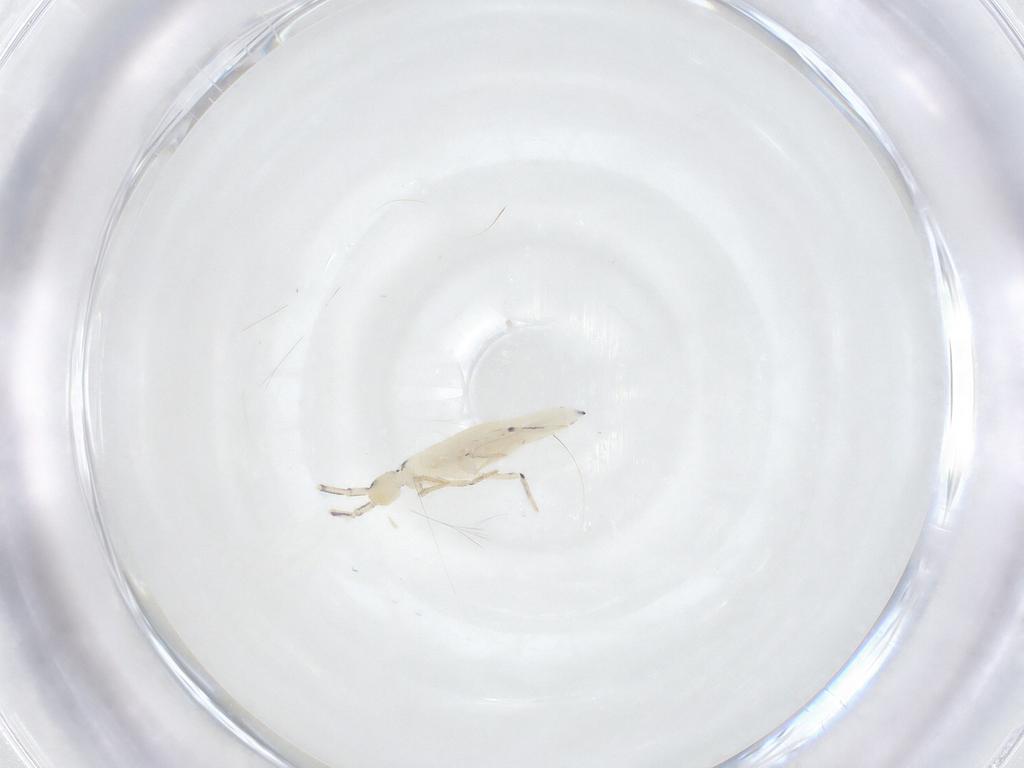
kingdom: Animalia
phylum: Arthropoda
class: Collembola
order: Entomobryomorpha
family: Entomobryidae
